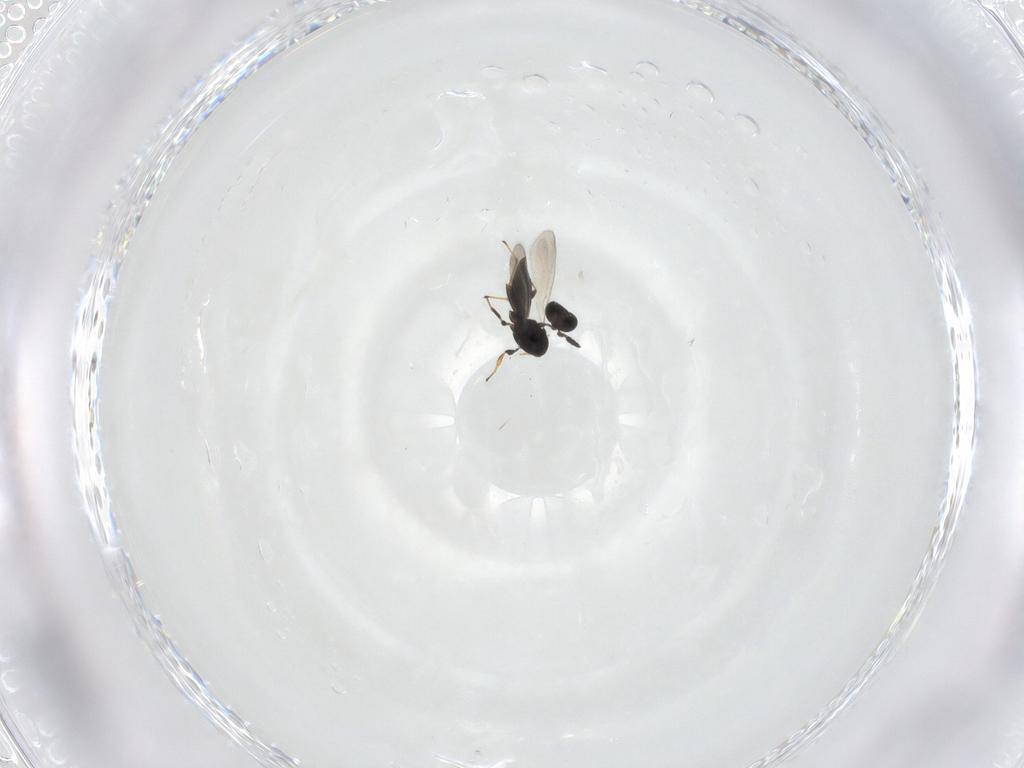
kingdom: Animalia
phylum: Arthropoda
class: Insecta
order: Hymenoptera
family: Platygastridae
